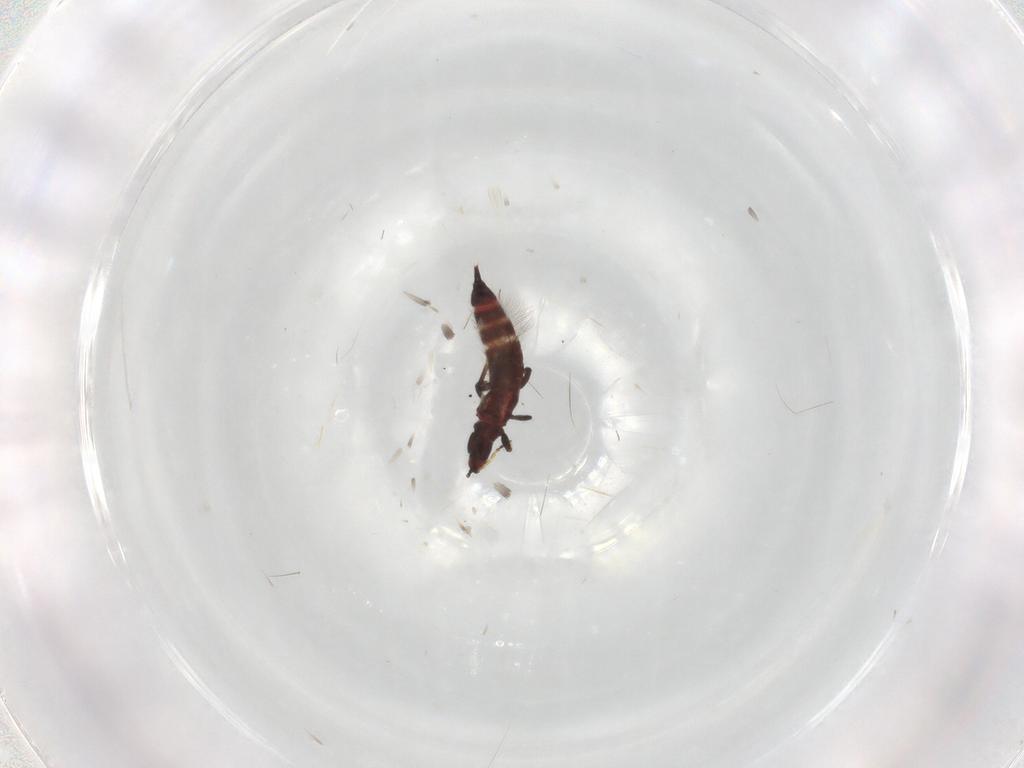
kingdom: Animalia
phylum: Arthropoda
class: Insecta
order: Thysanoptera
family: Phlaeothripidae
